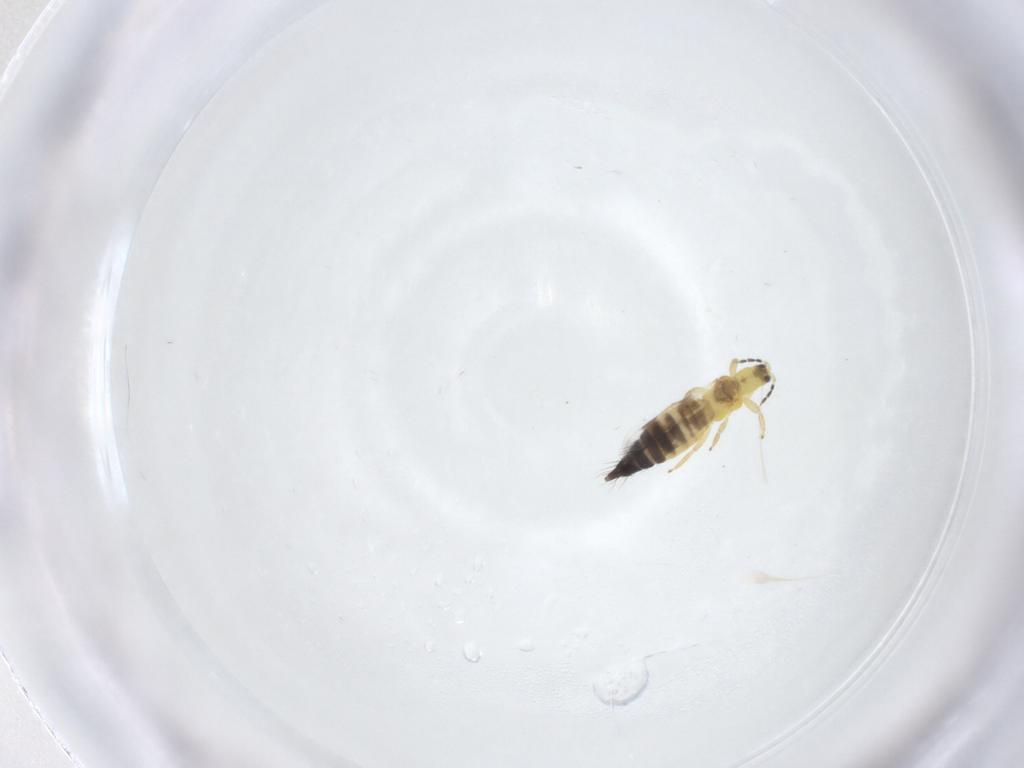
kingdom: Animalia
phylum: Arthropoda
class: Insecta
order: Thysanoptera
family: Aeolothripidae
